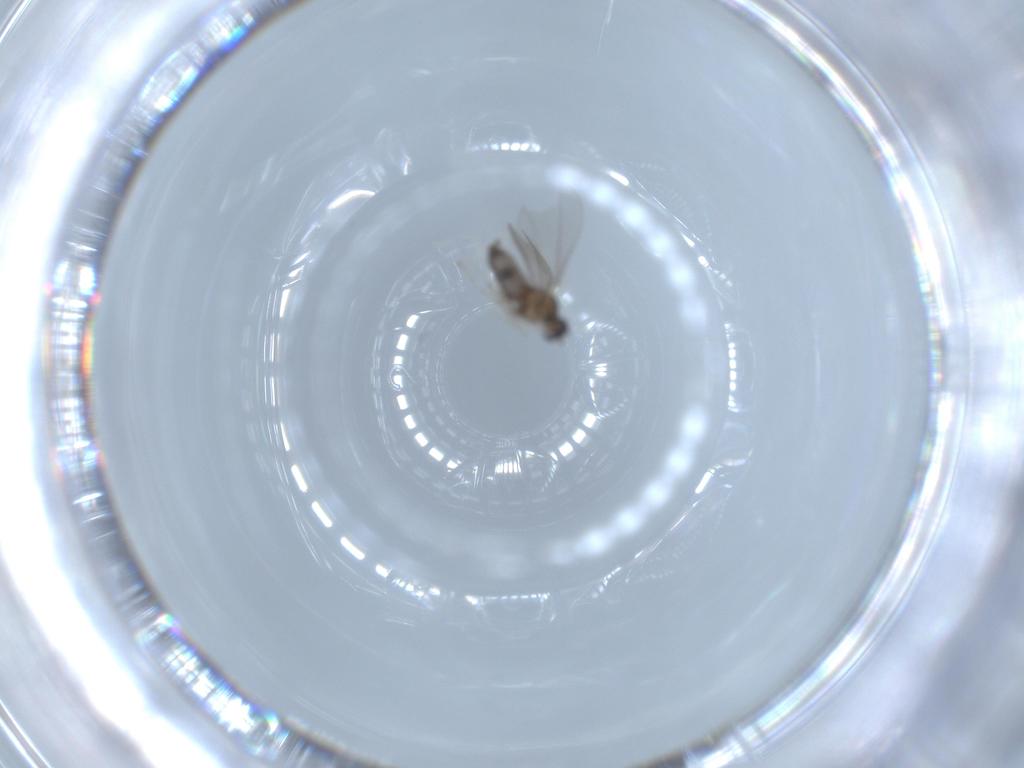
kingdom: Animalia
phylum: Arthropoda
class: Insecta
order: Diptera
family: Cecidomyiidae
